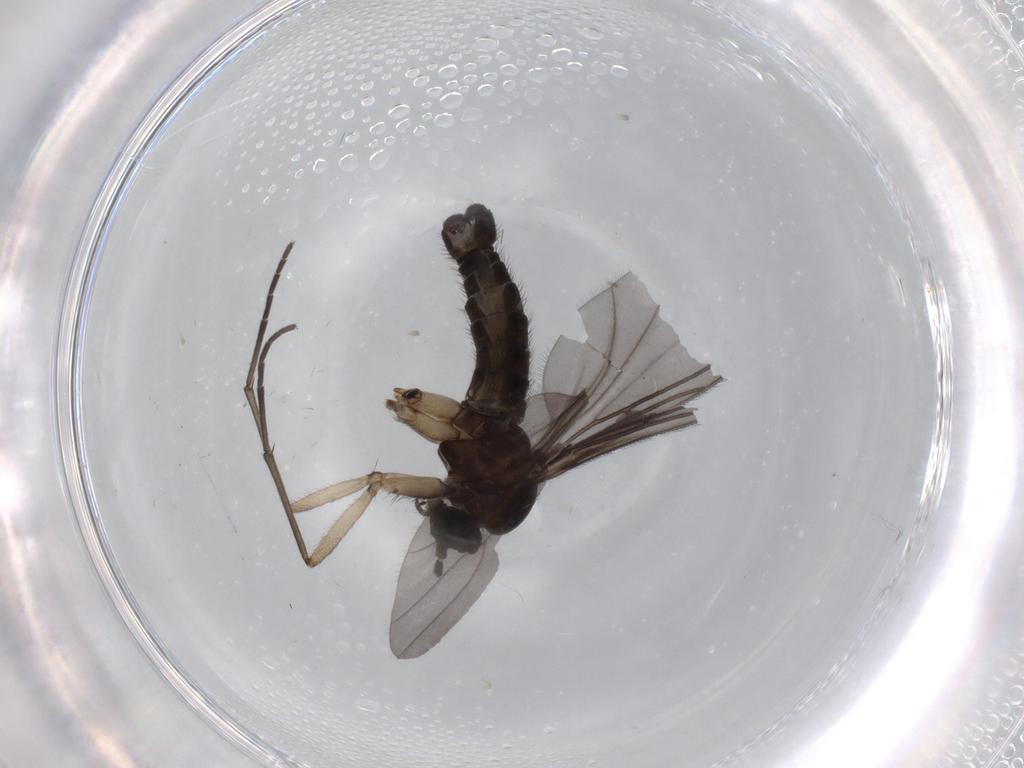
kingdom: Animalia
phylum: Arthropoda
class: Insecta
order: Diptera
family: Sciaridae
